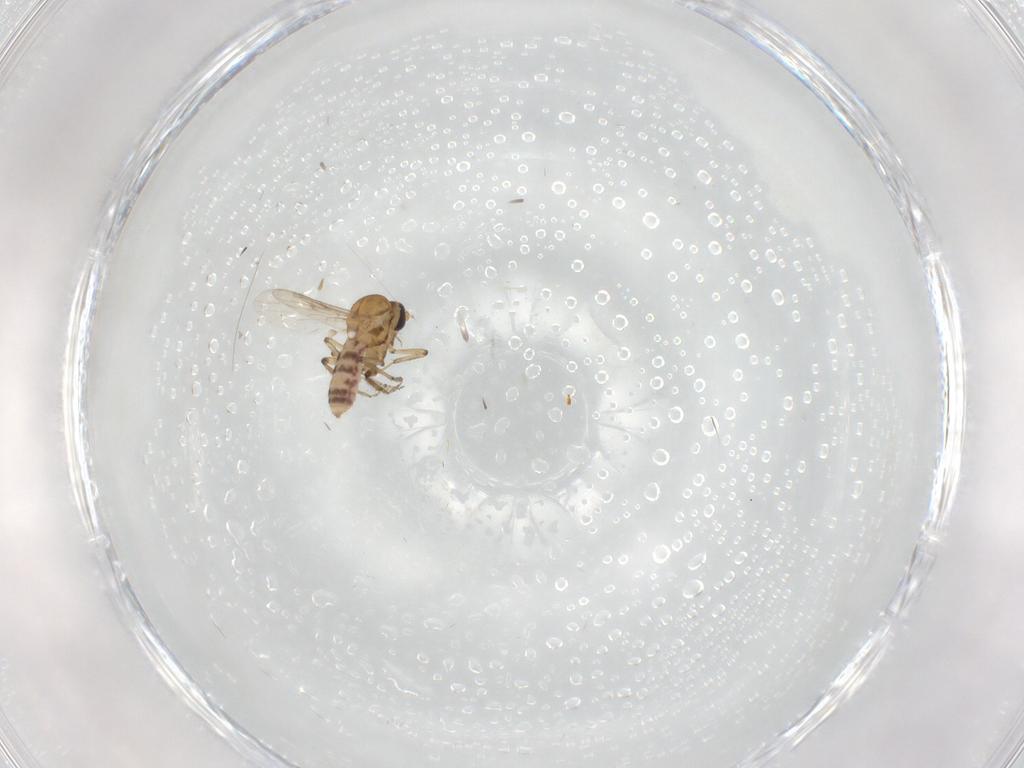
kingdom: Animalia
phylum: Arthropoda
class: Insecta
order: Diptera
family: Ceratopogonidae
